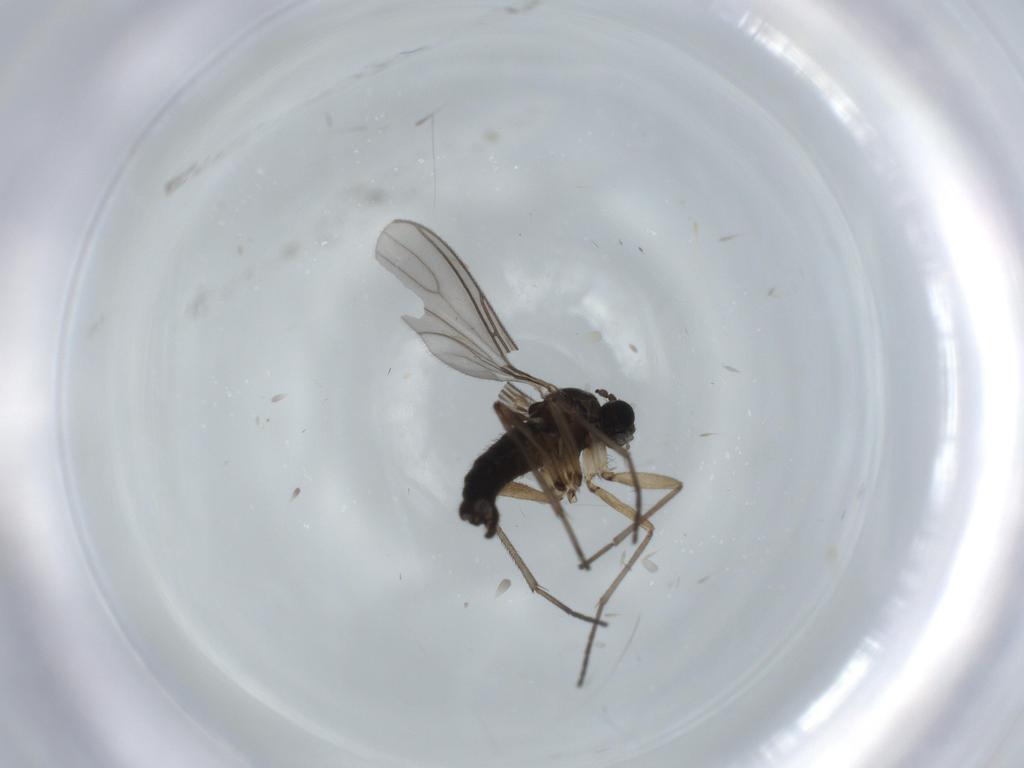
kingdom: Animalia
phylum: Arthropoda
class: Insecta
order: Diptera
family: Sciaridae
